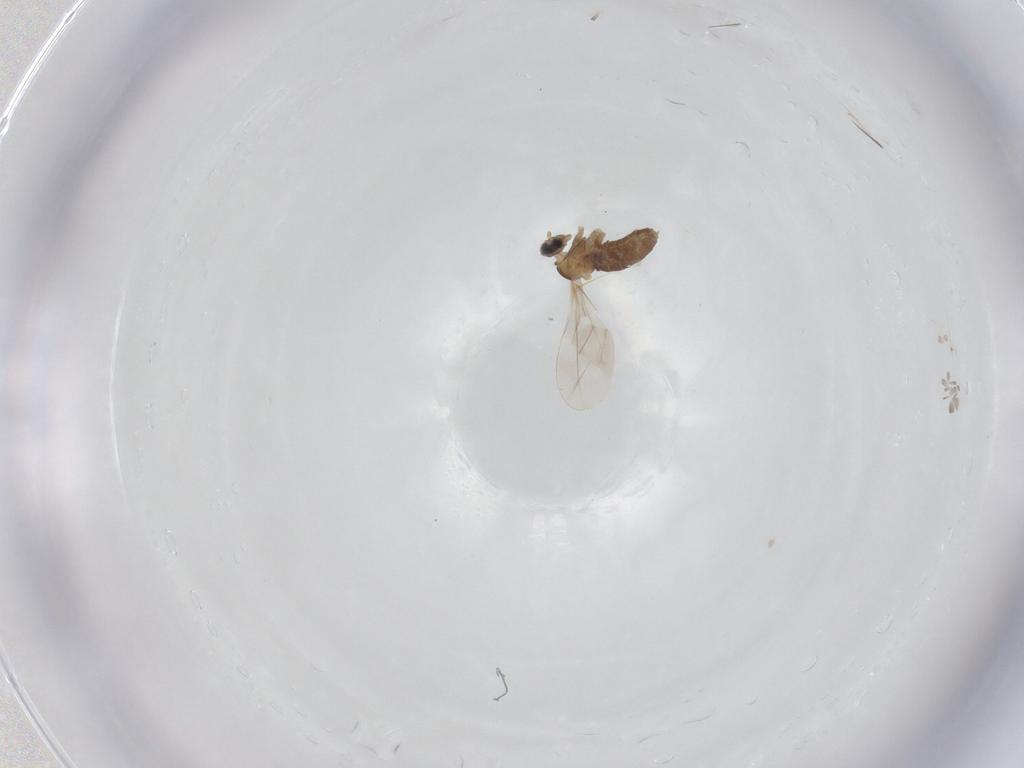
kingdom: Animalia
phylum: Arthropoda
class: Insecta
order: Diptera
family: Cecidomyiidae
